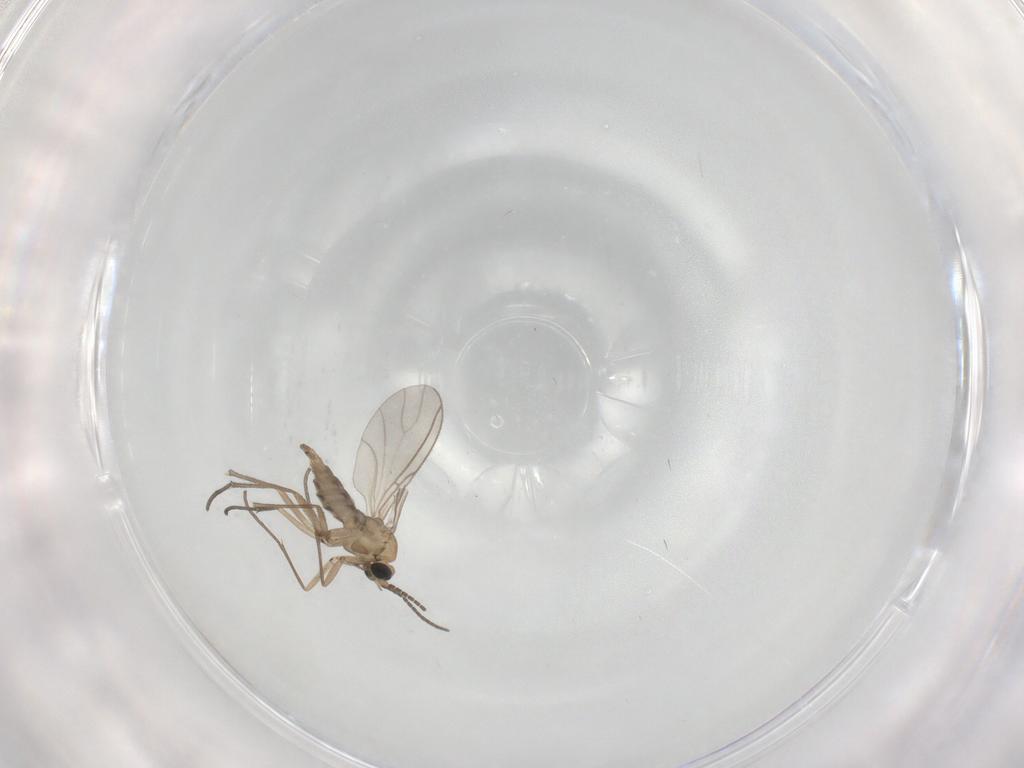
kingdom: Animalia
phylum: Arthropoda
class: Insecta
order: Diptera
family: Sciaridae
